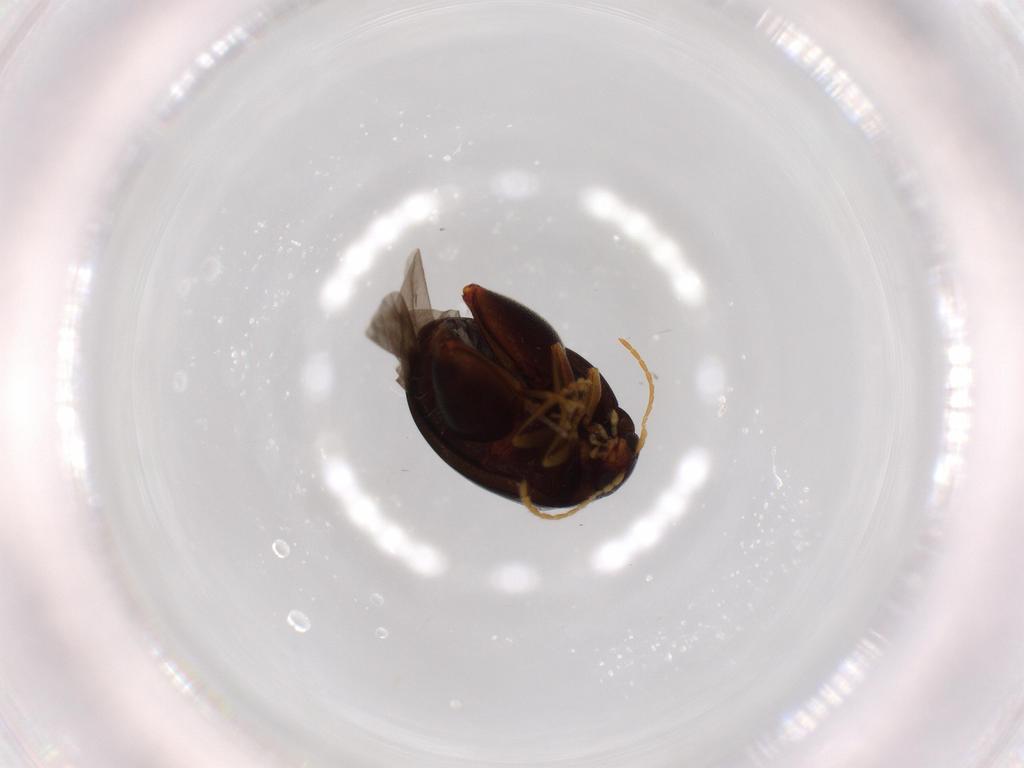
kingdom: Animalia
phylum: Arthropoda
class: Insecta
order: Coleoptera
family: Chrysomelidae
